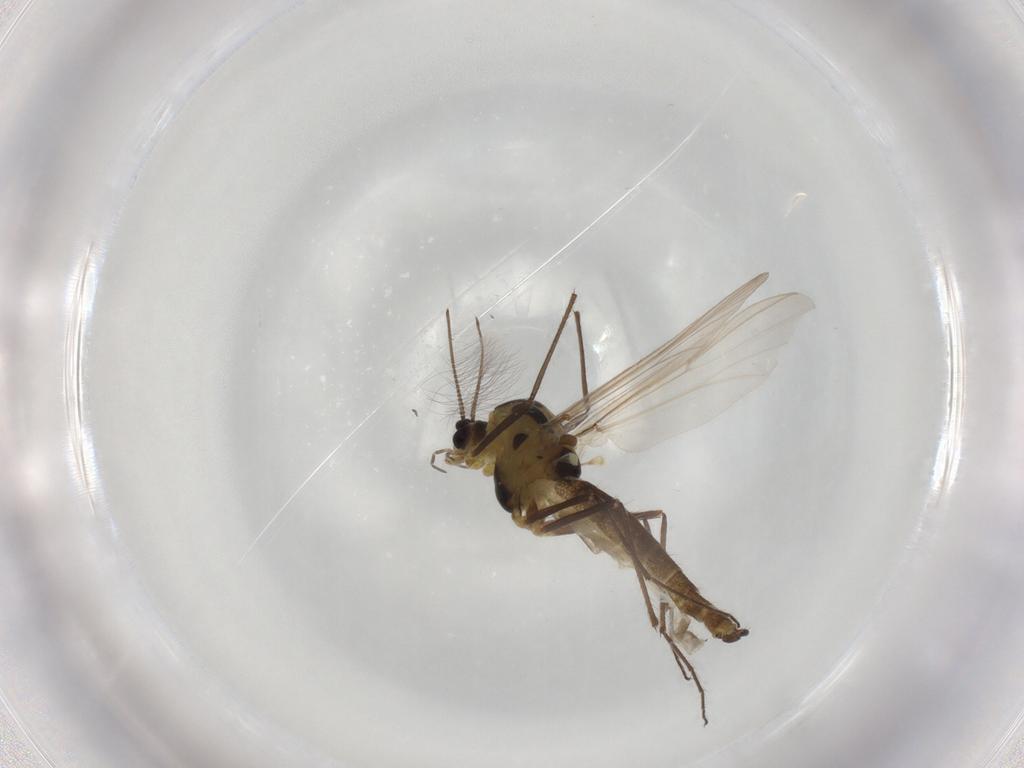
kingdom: Animalia
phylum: Arthropoda
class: Insecta
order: Diptera
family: Chironomidae
